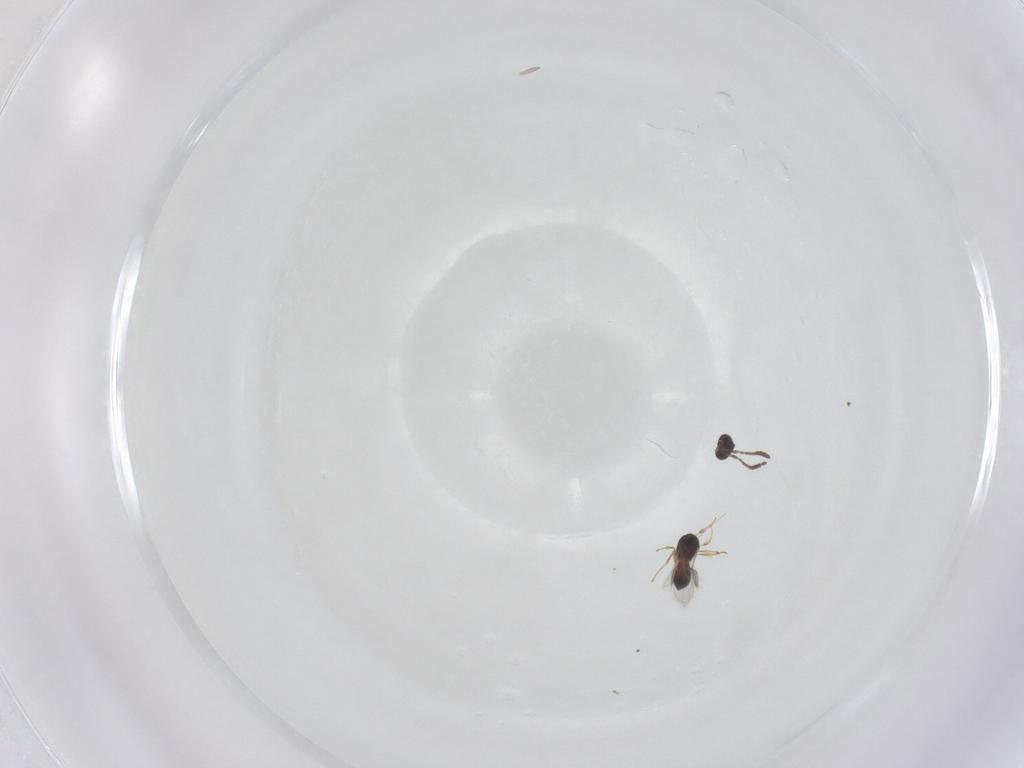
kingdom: Animalia
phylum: Arthropoda
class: Insecta
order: Hymenoptera
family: Scelionidae
